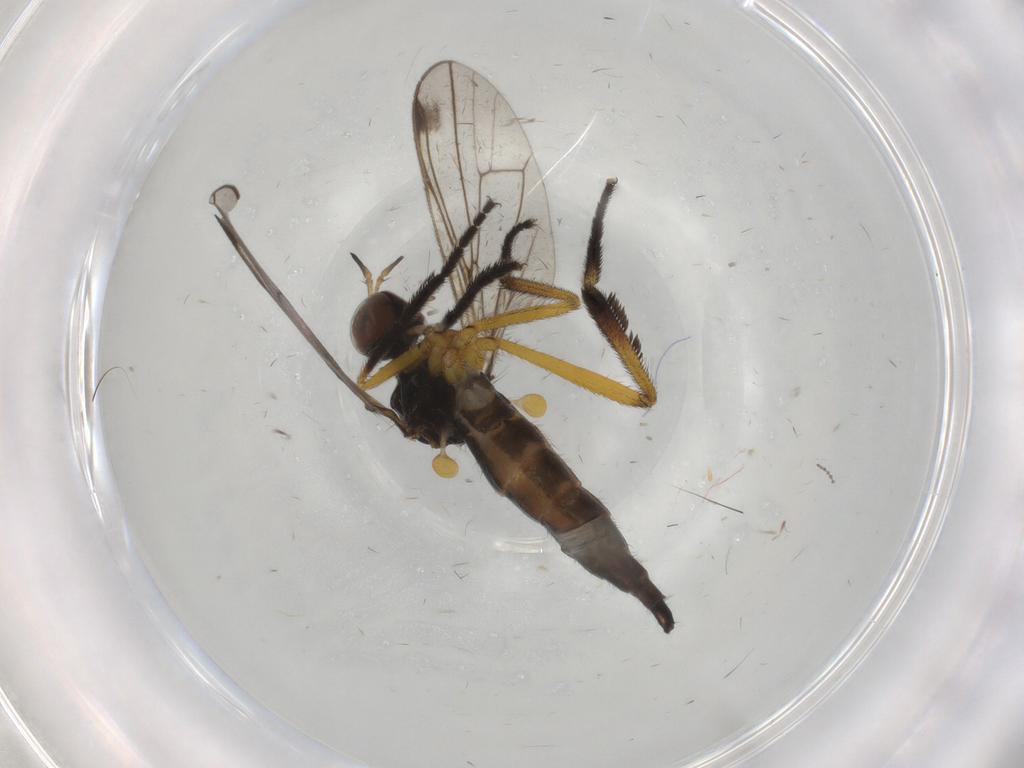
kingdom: Animalia
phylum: Arthropoda
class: Insecta
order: Diptera
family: Empididae
